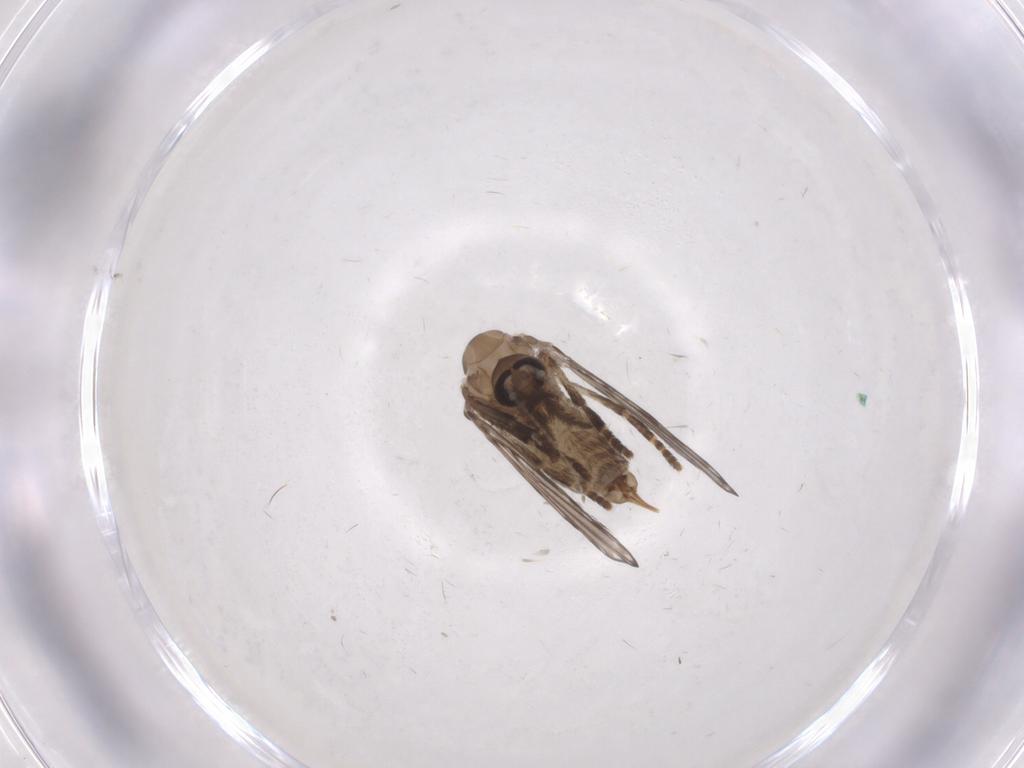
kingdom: Animalia
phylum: Arthropoda
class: Insecta
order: Diptera
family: Psychodidae
